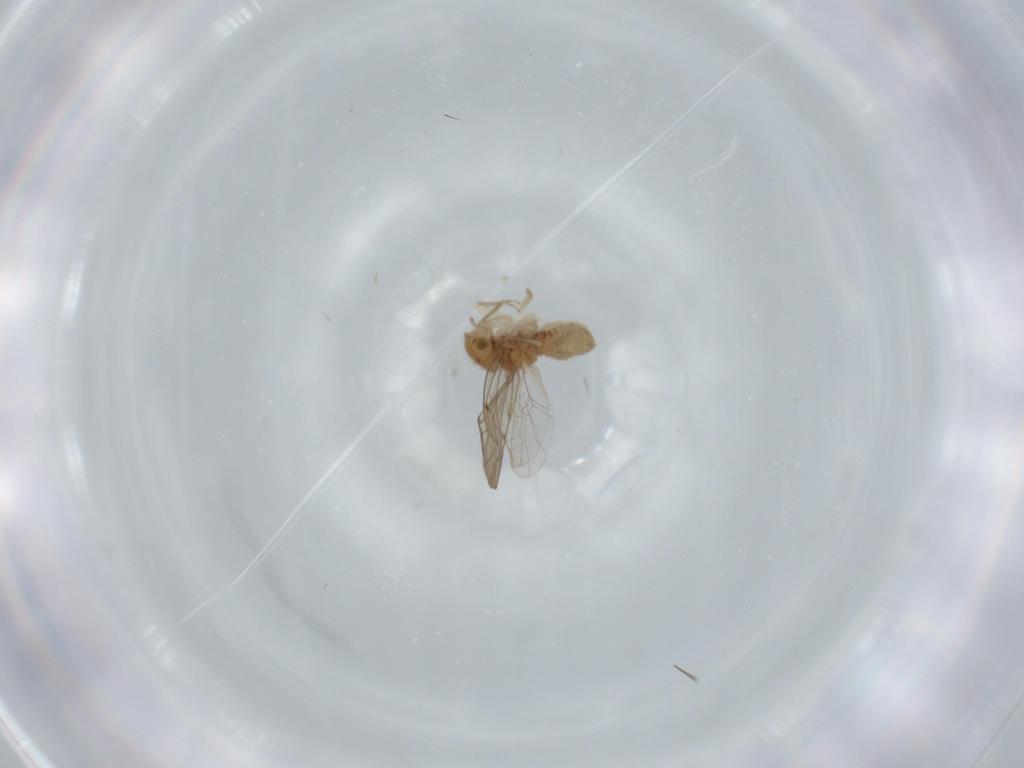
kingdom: Animalia
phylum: Arthropoda
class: Insecta
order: Psocodea
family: Ectopsocidae
